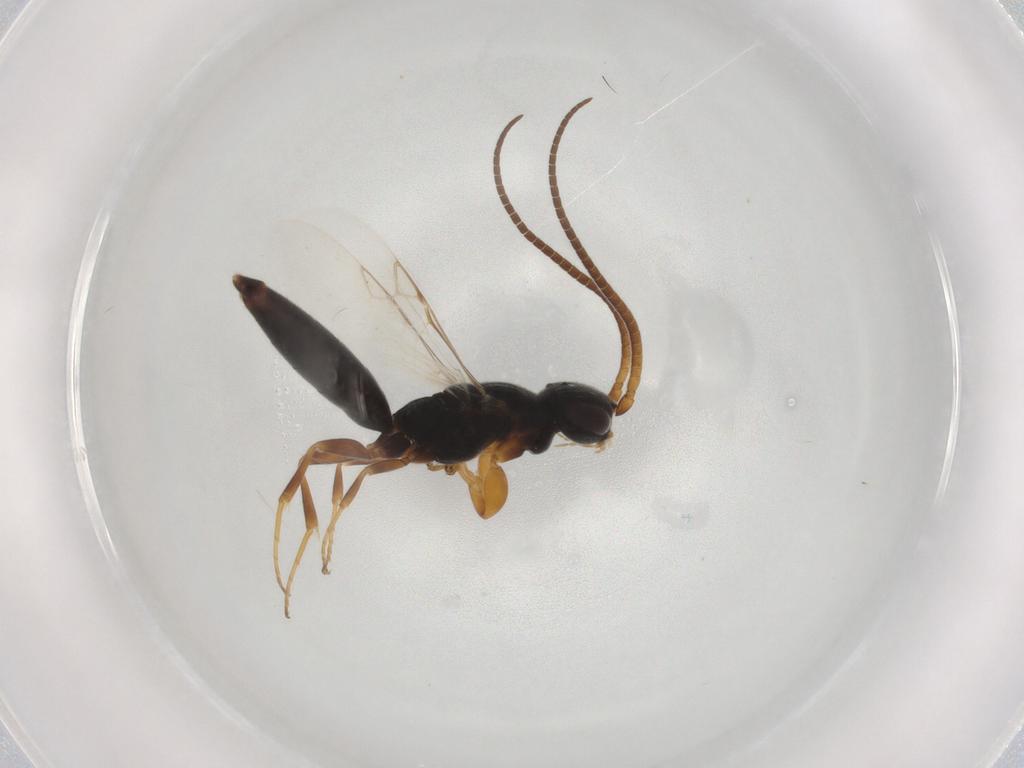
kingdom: Animalia
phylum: Arthropoda
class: Insecta
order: Hymenoptera
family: Sclerogibbidae
